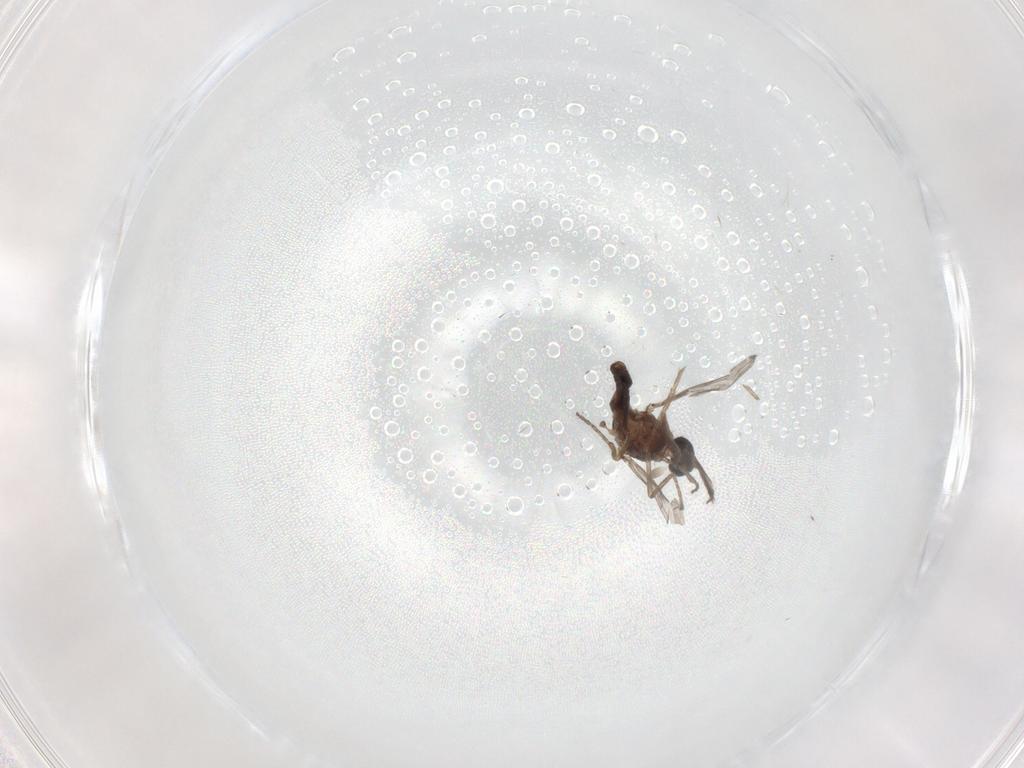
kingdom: Animalia
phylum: Arthropoda
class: Insecta
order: Diptera
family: Ceratopogonidae
